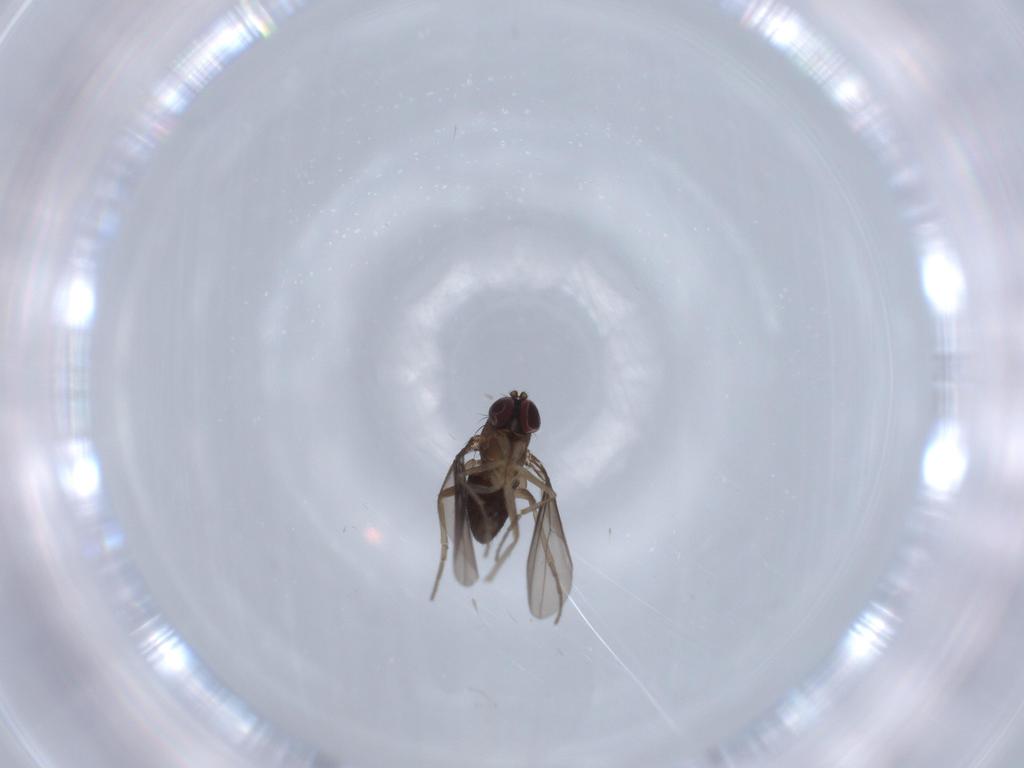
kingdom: Animalia
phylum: Arthropoda
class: Insecta
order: Diptera
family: Dolichopodidae
